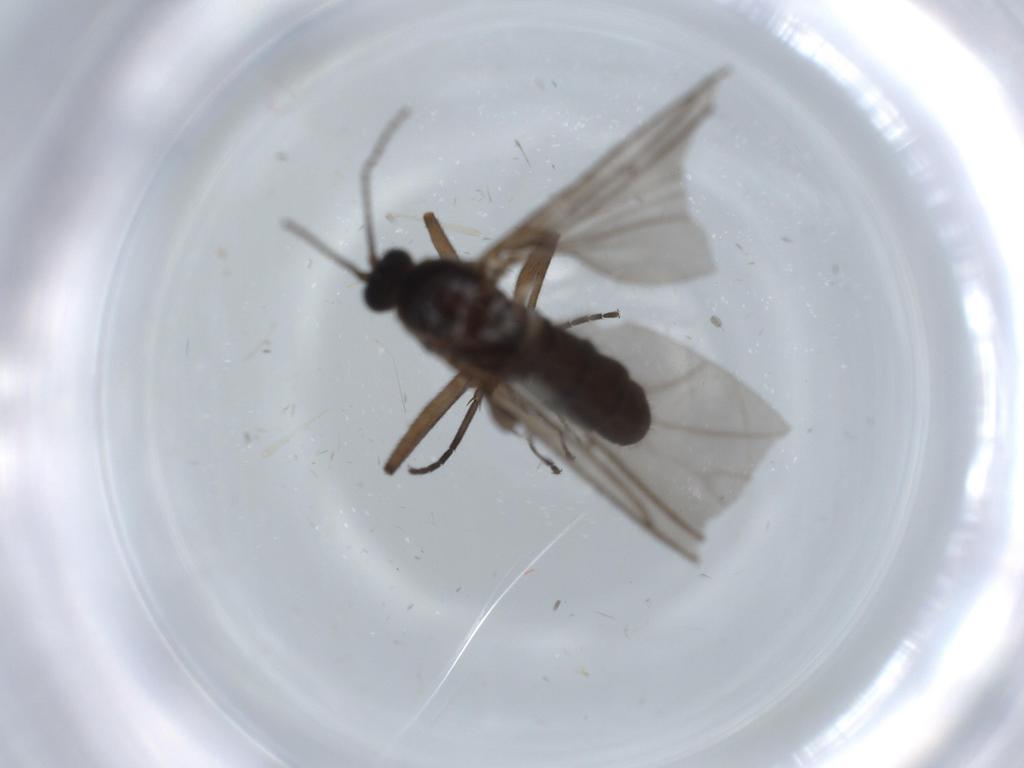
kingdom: Animalia
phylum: Arthropoda
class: Insecta
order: Diptera
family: Sciaridae
